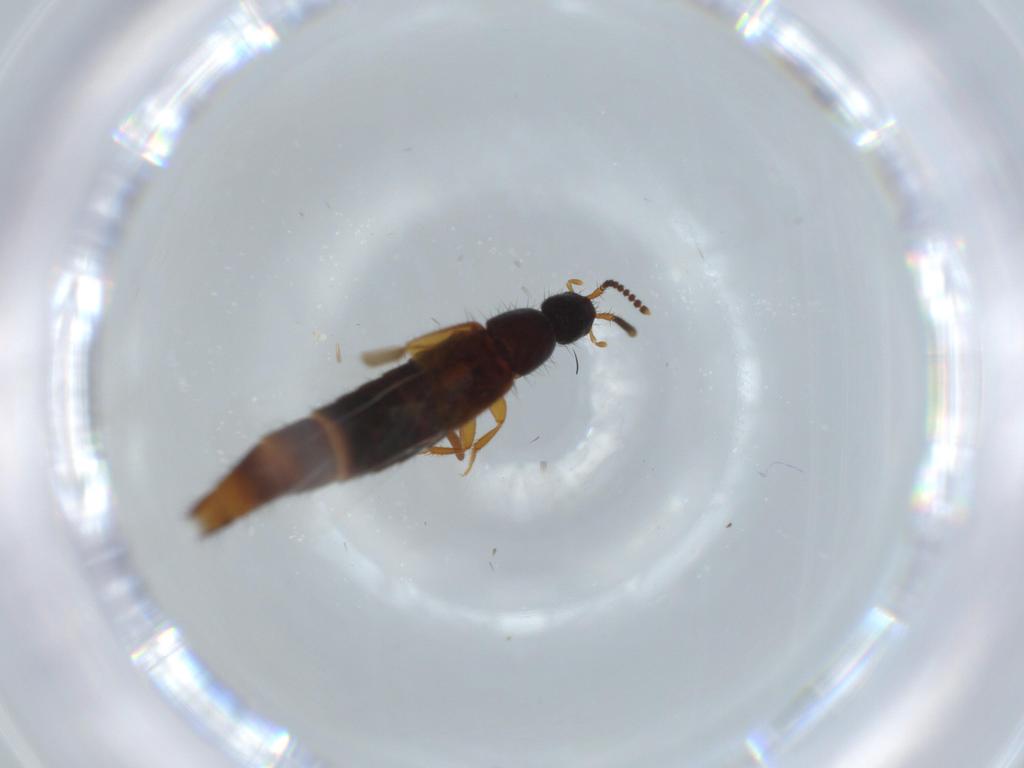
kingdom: Animalia
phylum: Arthropoda
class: Insecta
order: Coleoptera
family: Staphylinidae
